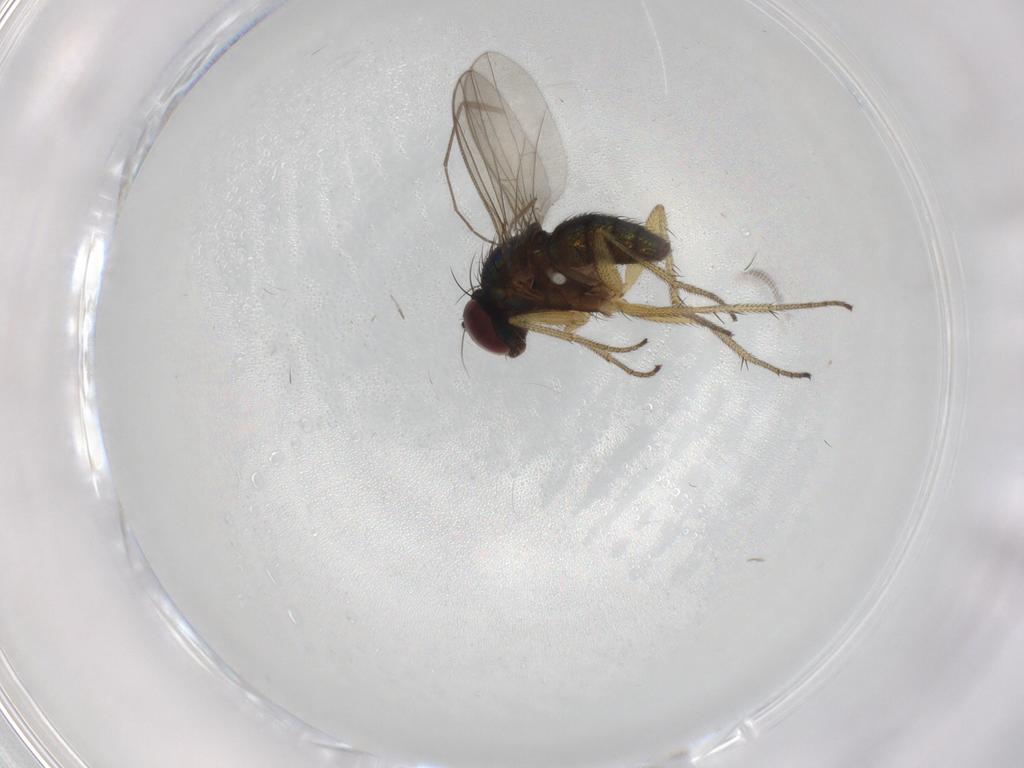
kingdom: Animalia
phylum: Arthropoda
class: Insecta
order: Diptera
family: Dolichopodidae
